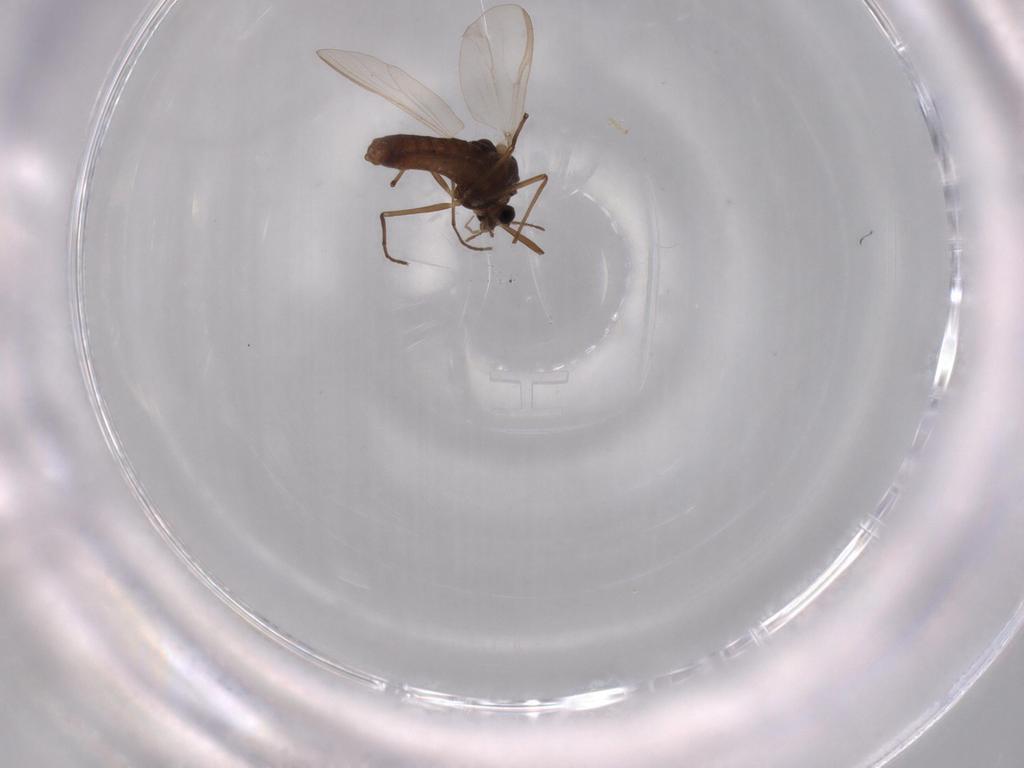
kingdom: Animalia
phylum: Arthropoda
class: Insecta
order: Diptera
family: Chironomidae
